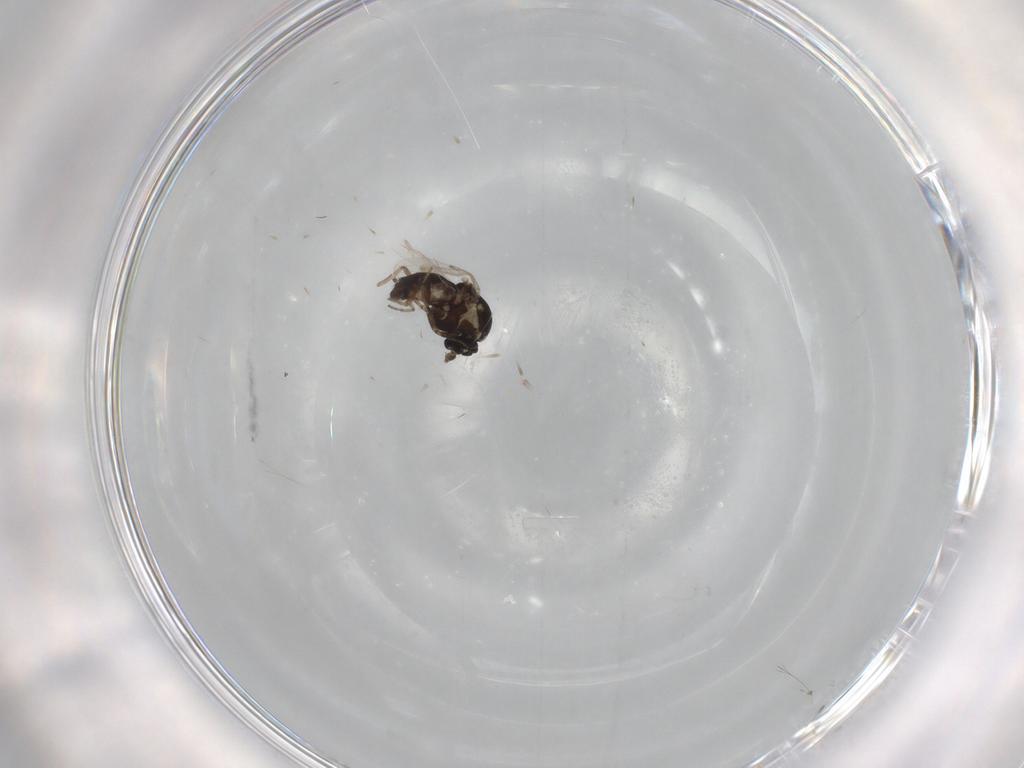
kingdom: Animalia
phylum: Arthropoda
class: Insecta
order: Diptera
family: Ceratopogonidae
